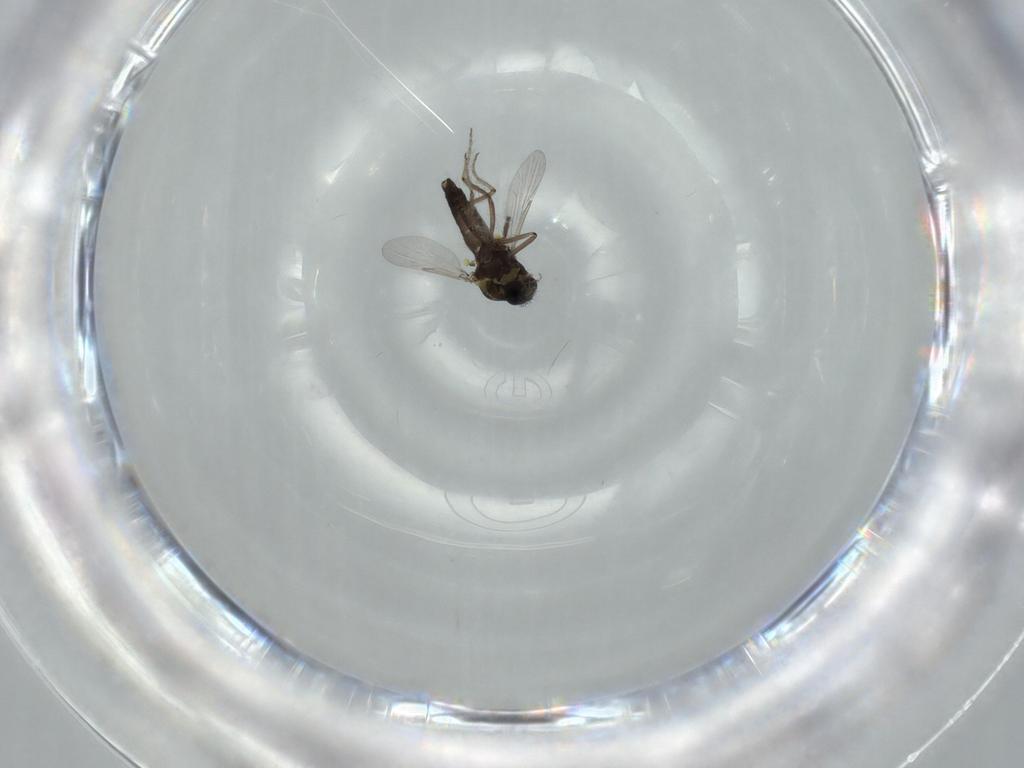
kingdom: Animalia
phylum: Arthropoda
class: Insecta
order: Diptera
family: Ceratopogonidae
